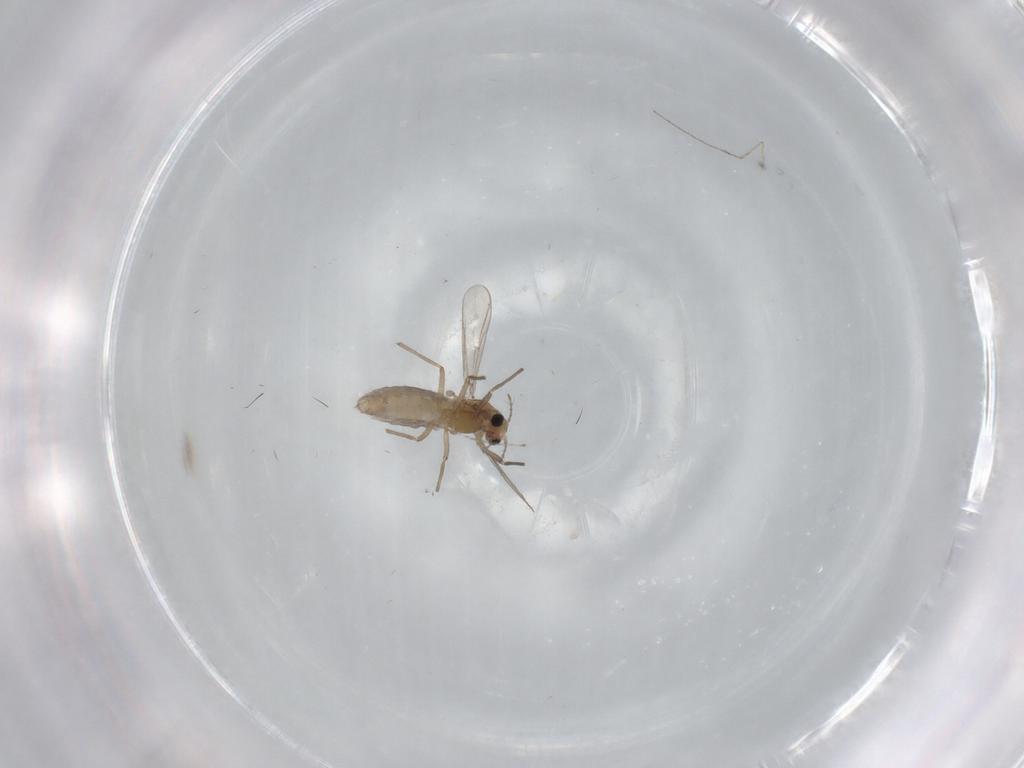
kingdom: Animalia
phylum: Arthropoda
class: Insecta
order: Diptera
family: Chironomidae
